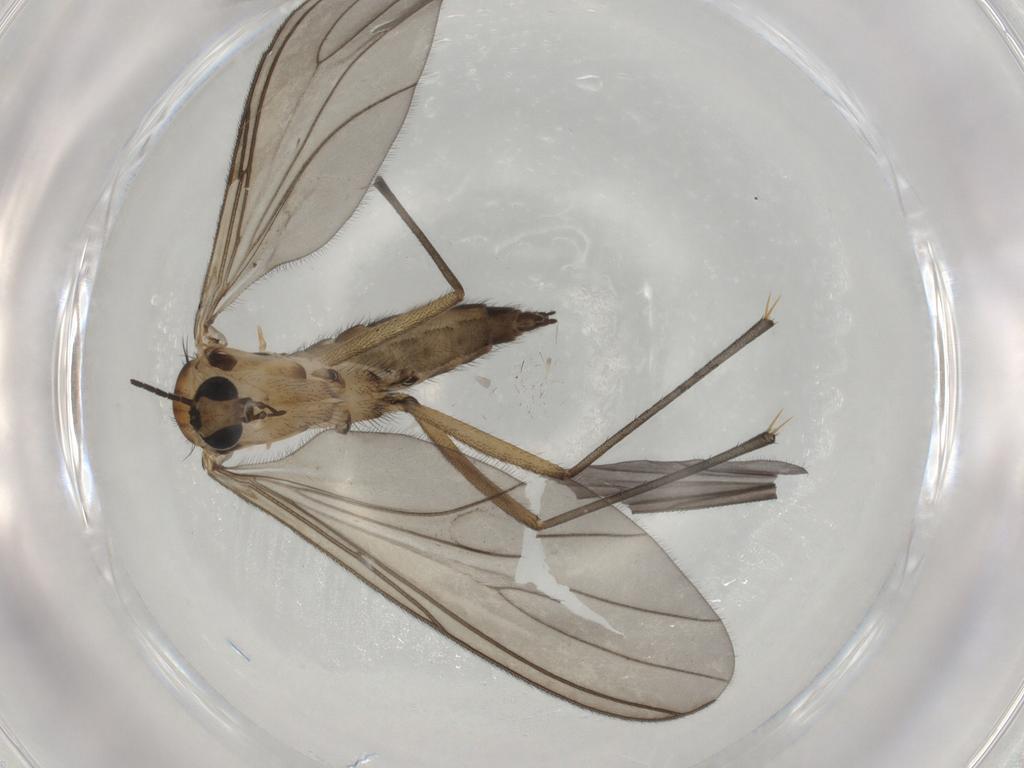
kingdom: Animalia
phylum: Arthropoda
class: Insecta
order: Diptera
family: Sciaridae
